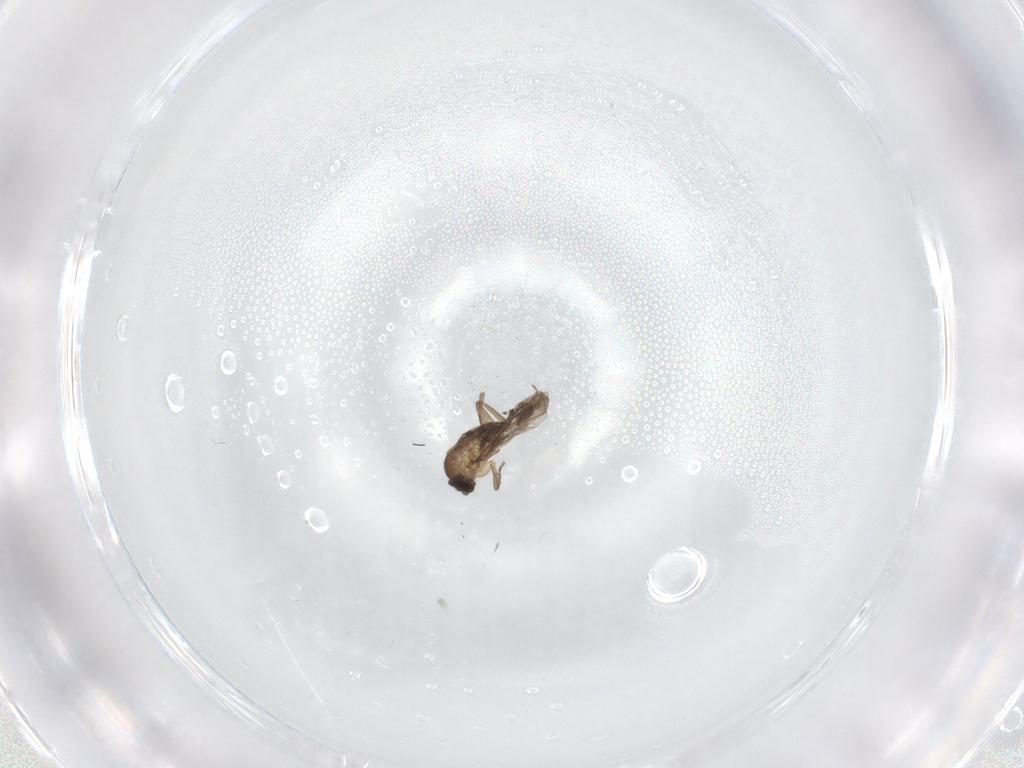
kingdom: Animalia
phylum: Arthropoda
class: Insecta
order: Diptera
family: Phoridae
